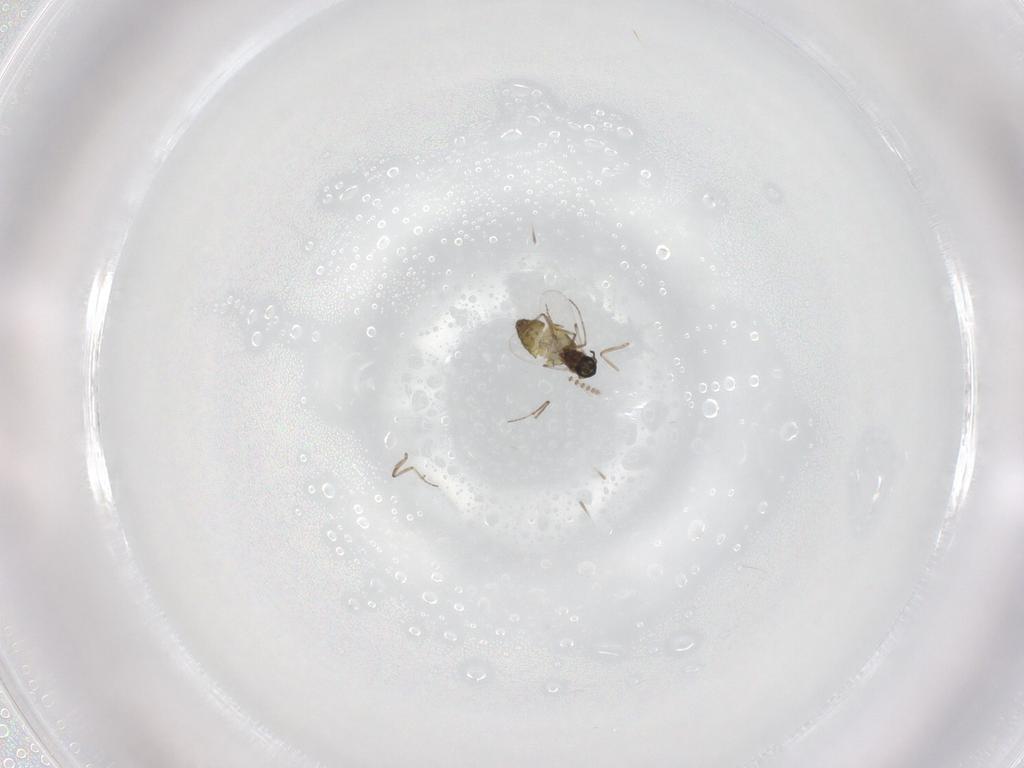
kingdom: Animalia
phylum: Arthropoda
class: Insecta
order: Diptera
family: Ceratopogonidae
